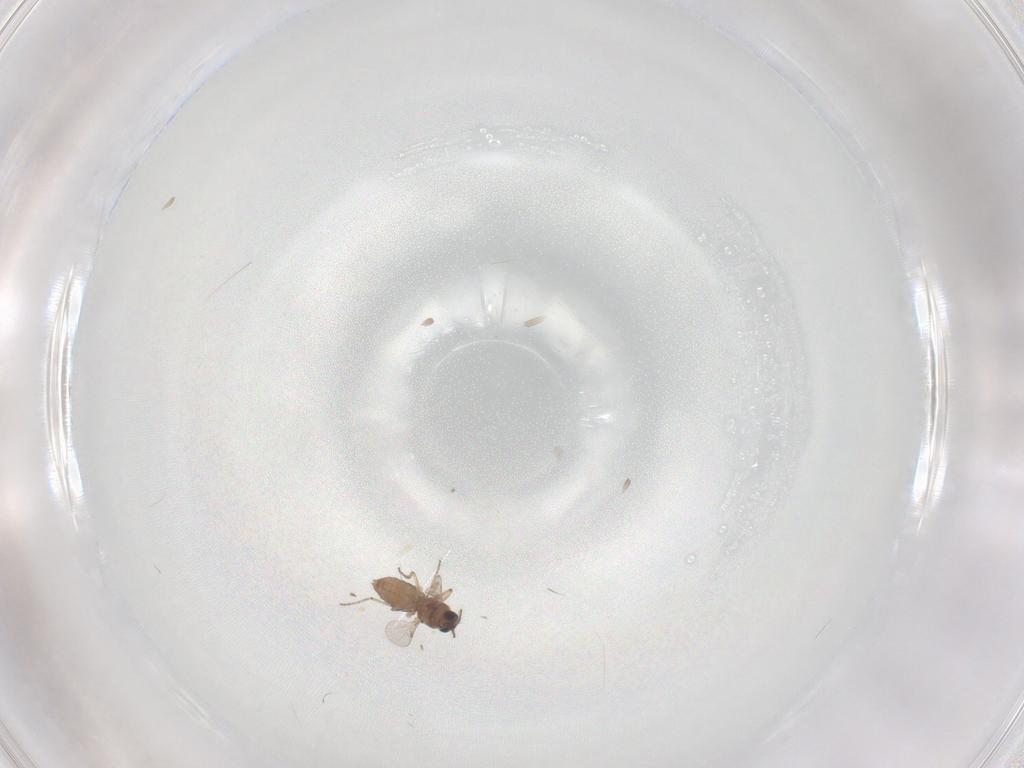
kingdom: Animalia
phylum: Arthropoda
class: Insecta
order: Diptera
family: Ceratopogonidae
